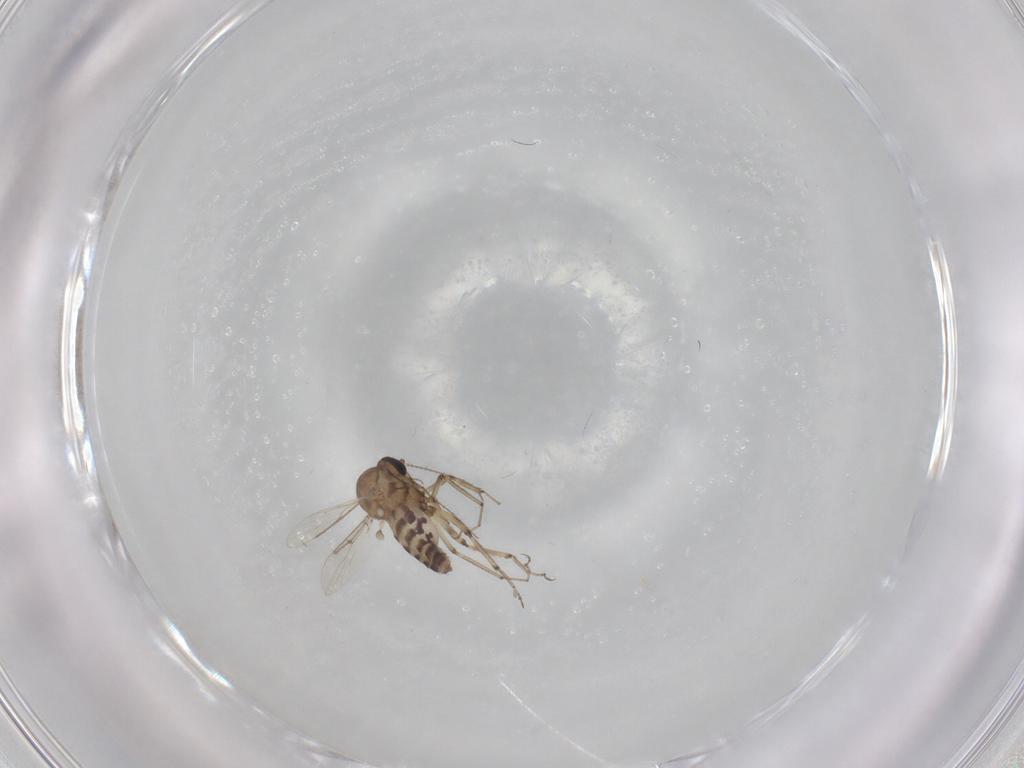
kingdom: Animalia
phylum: Arthropoda
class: Insecta
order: Diptera
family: Ceratopogonidae
